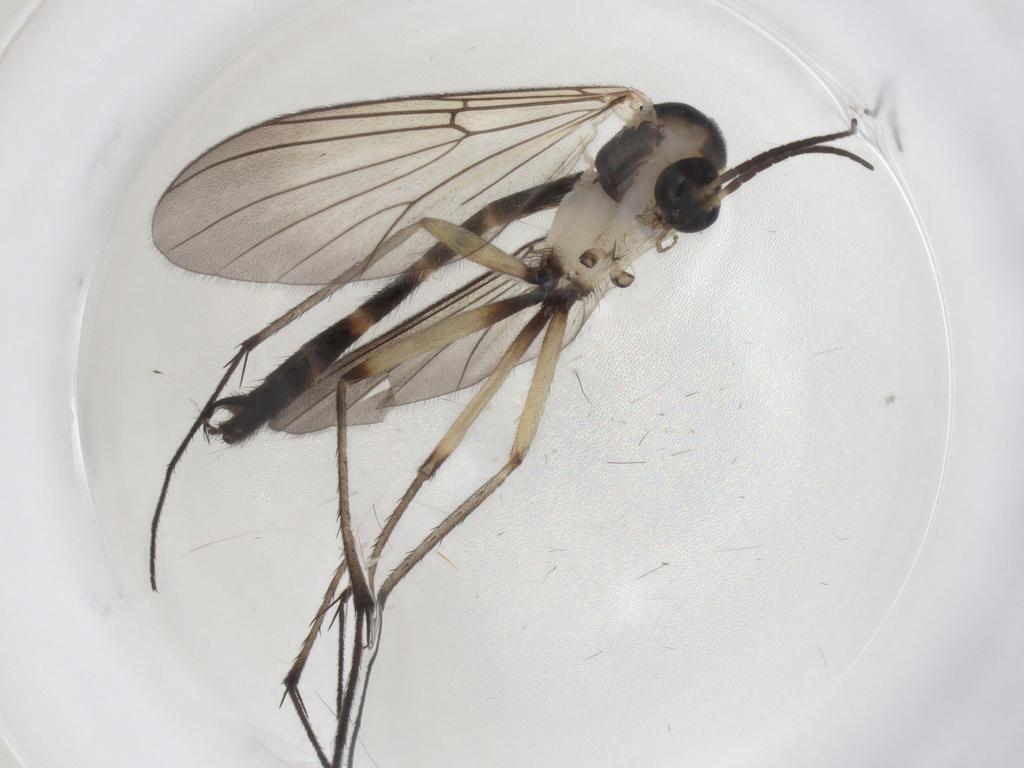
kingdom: Animalia
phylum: Arthropoda
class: Insecta
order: Diptera
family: Mycetophilidae
